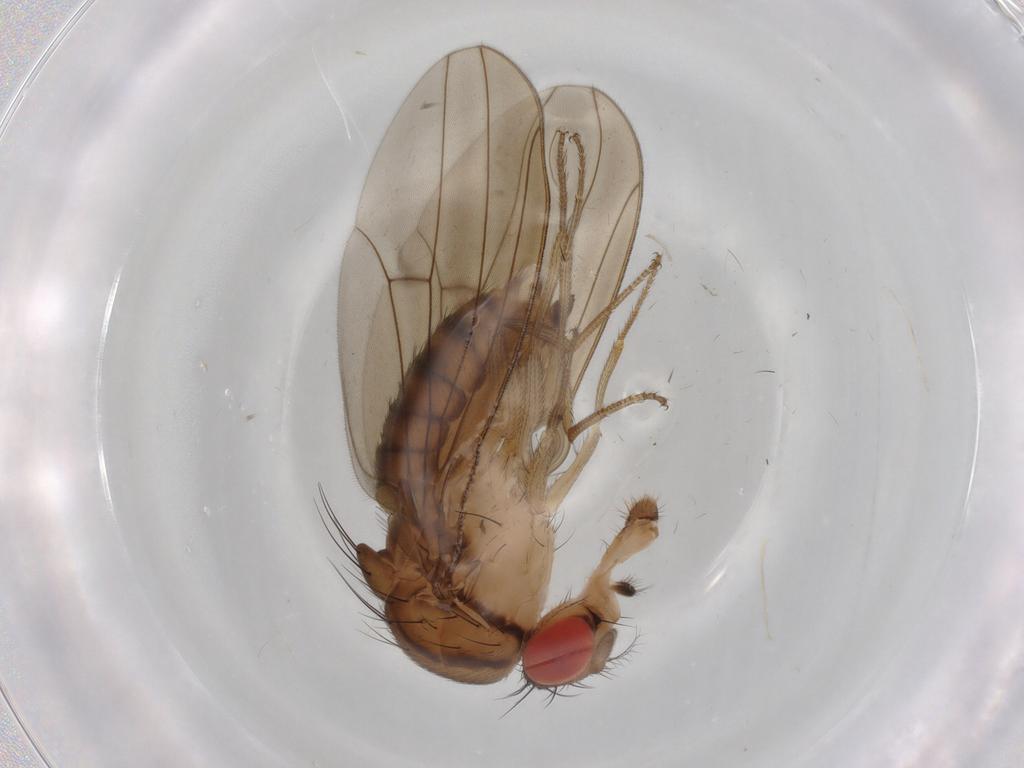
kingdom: Animalia
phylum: Arthropoda
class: Insecta
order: Diptera
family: Drosophilidae
